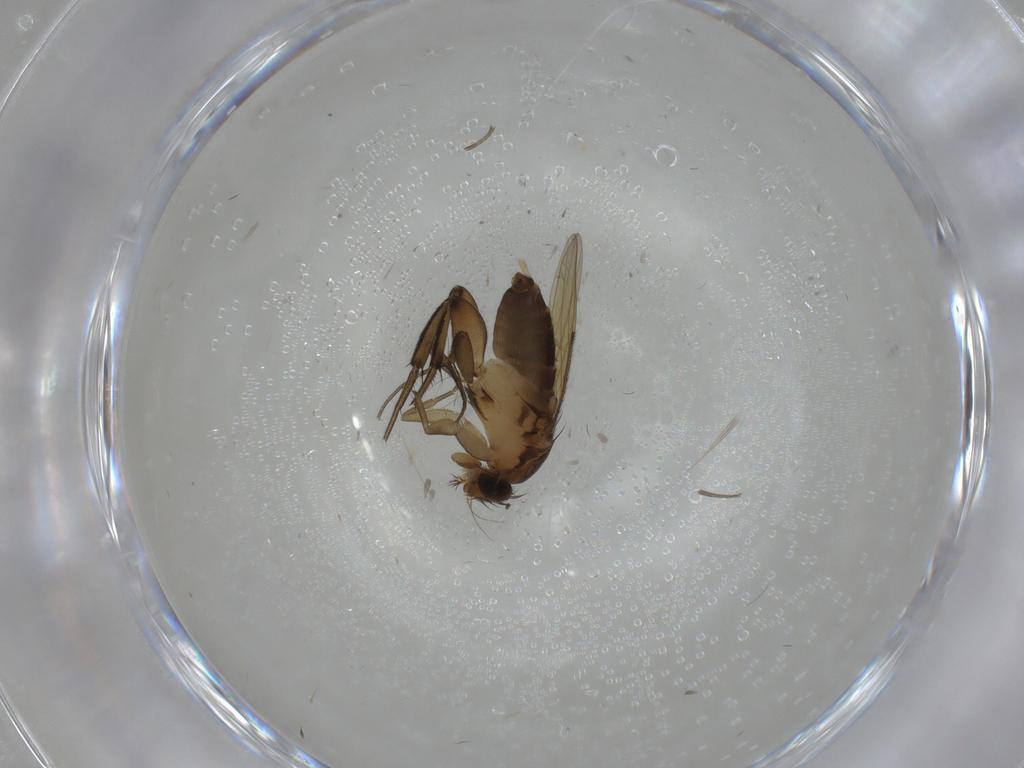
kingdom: Animalia
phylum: Arthropoda
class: Insecta
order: Diptera
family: Phoridae
